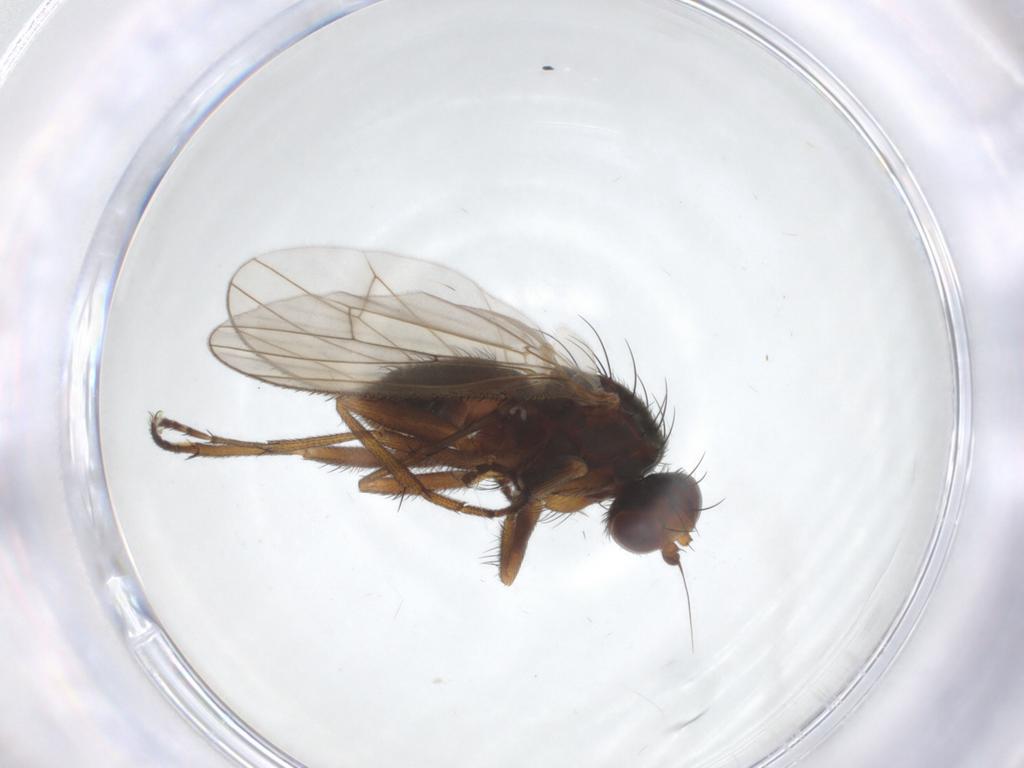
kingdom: Animalia
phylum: Arthropoda
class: Insecta
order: Diptera
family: Heleomyzidae
